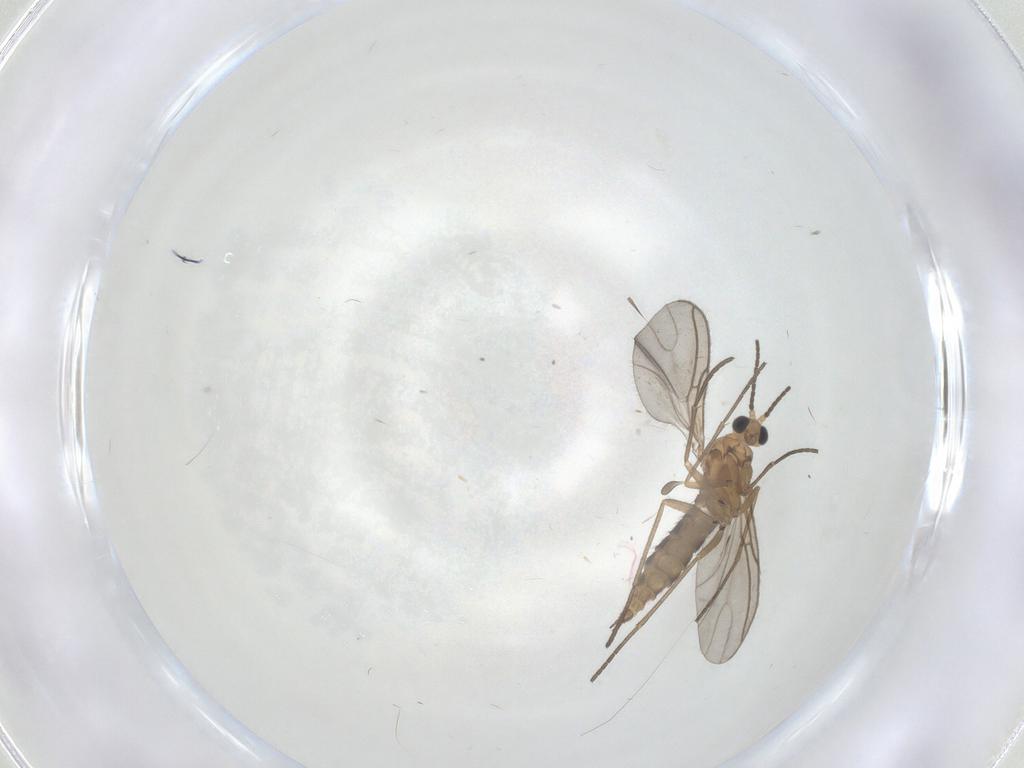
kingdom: Animalia
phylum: Arthropoda
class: Insecta
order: Diptera
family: Sciaridae
